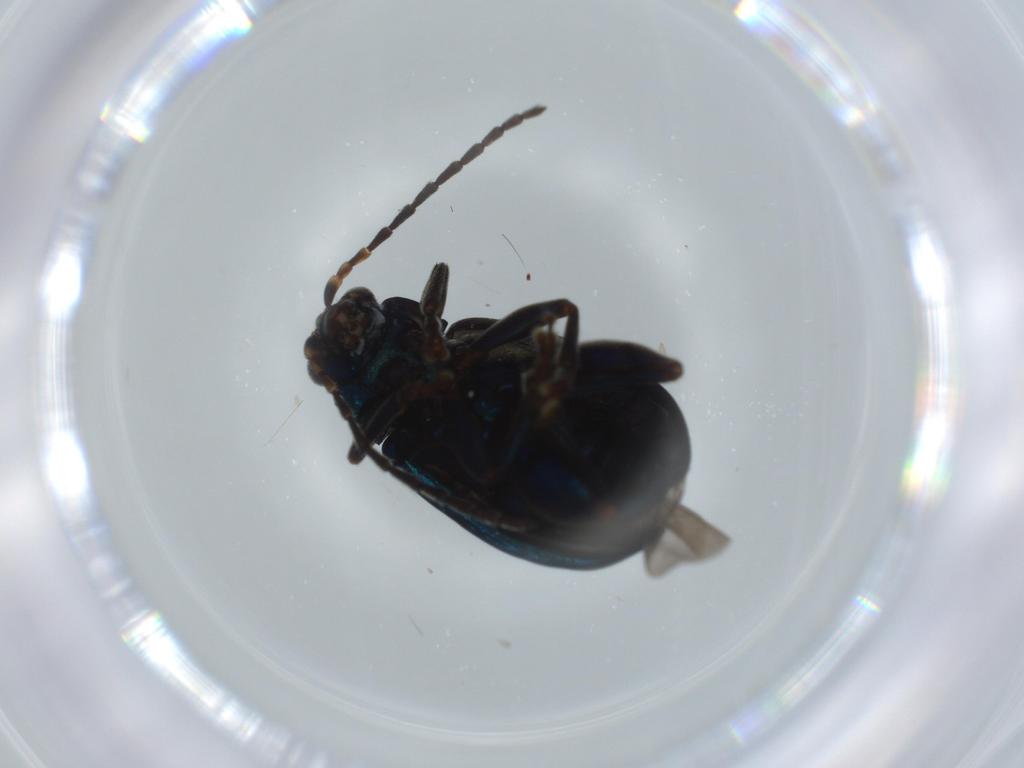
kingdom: Animalia
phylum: Arthropoda
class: Insecta
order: Coleoptera
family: Chrysomelidae
